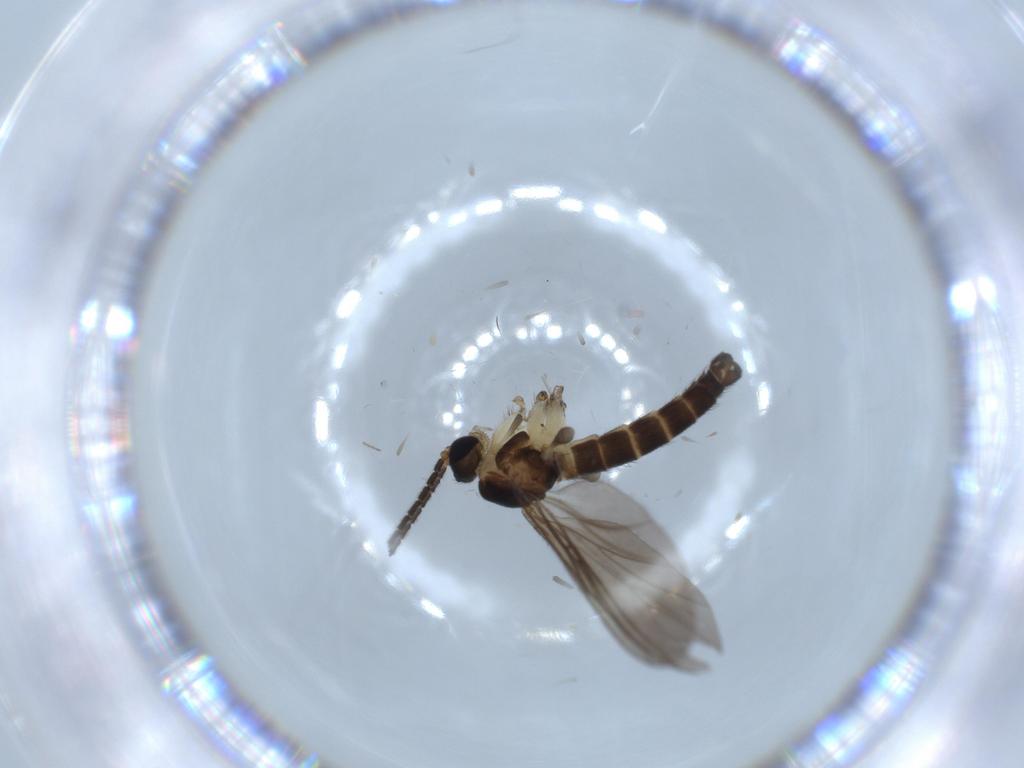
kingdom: Animalia
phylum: Arthropoda
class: Insecta
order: Diptera
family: Sciaridae
